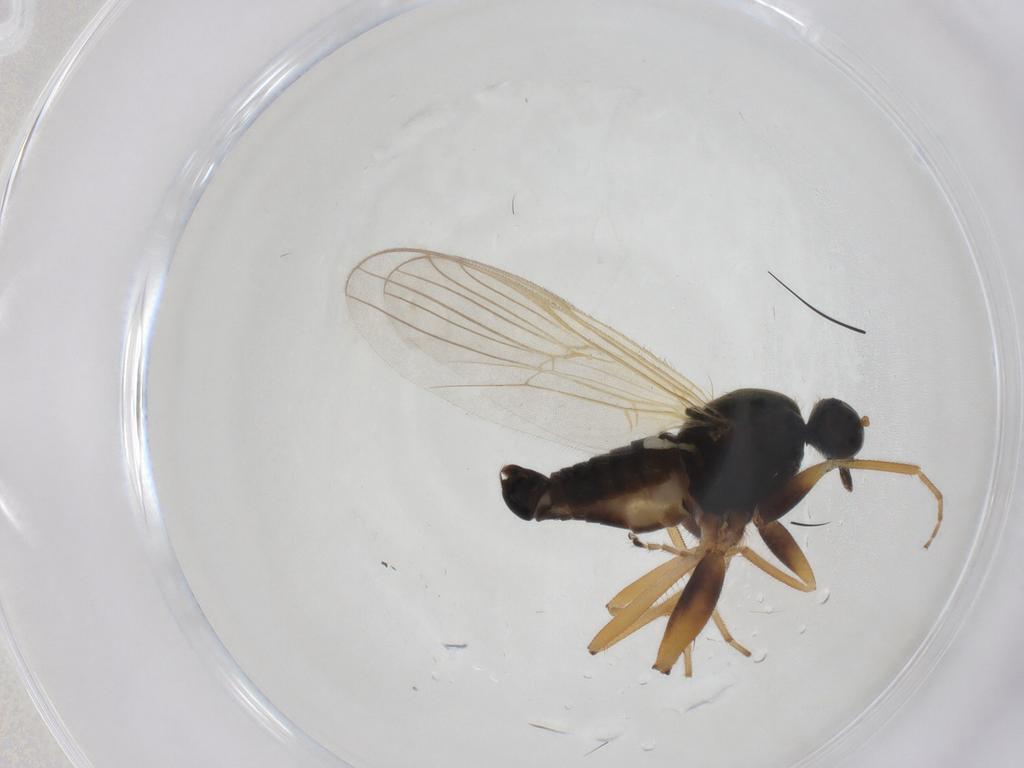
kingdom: Animalia
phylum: Arthropoda
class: Insecta
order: Diptera
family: Hybotidae
